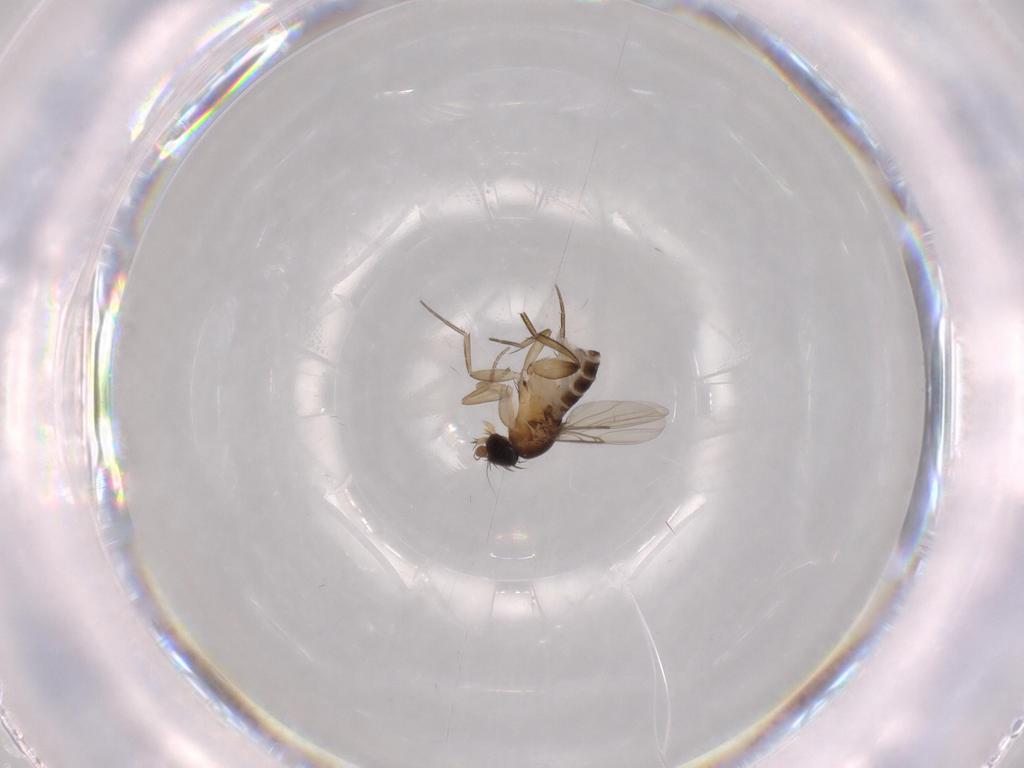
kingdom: Animalia
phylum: Arthropoda
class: Insecta
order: Diptera
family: Phoridae
